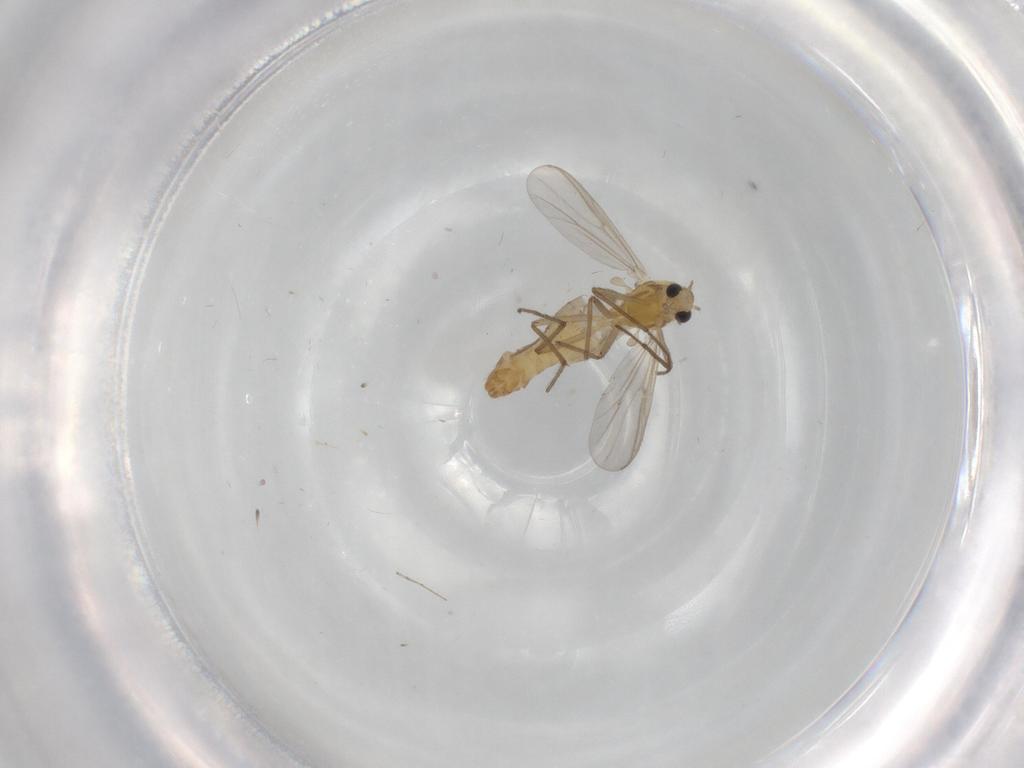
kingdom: Animalia
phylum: Arthropoda
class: Insecta
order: Diptera
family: Chironomidae
